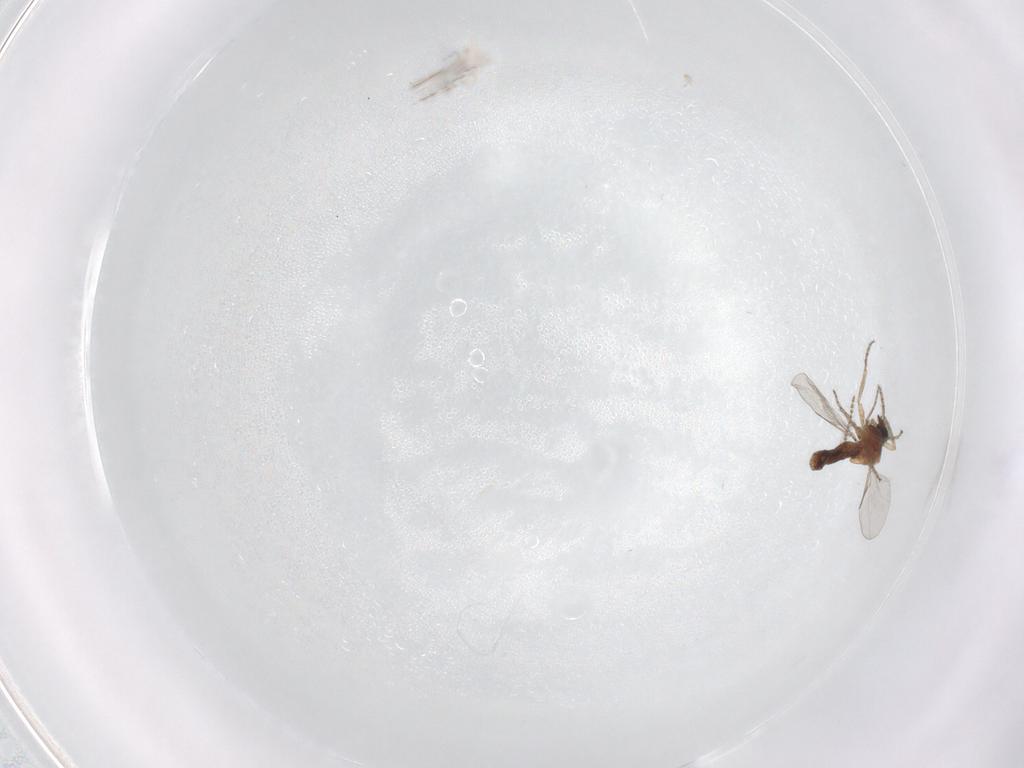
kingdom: Animalia
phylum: Arthropoda
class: Insecta
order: Diptera
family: Ceratopogonidae
